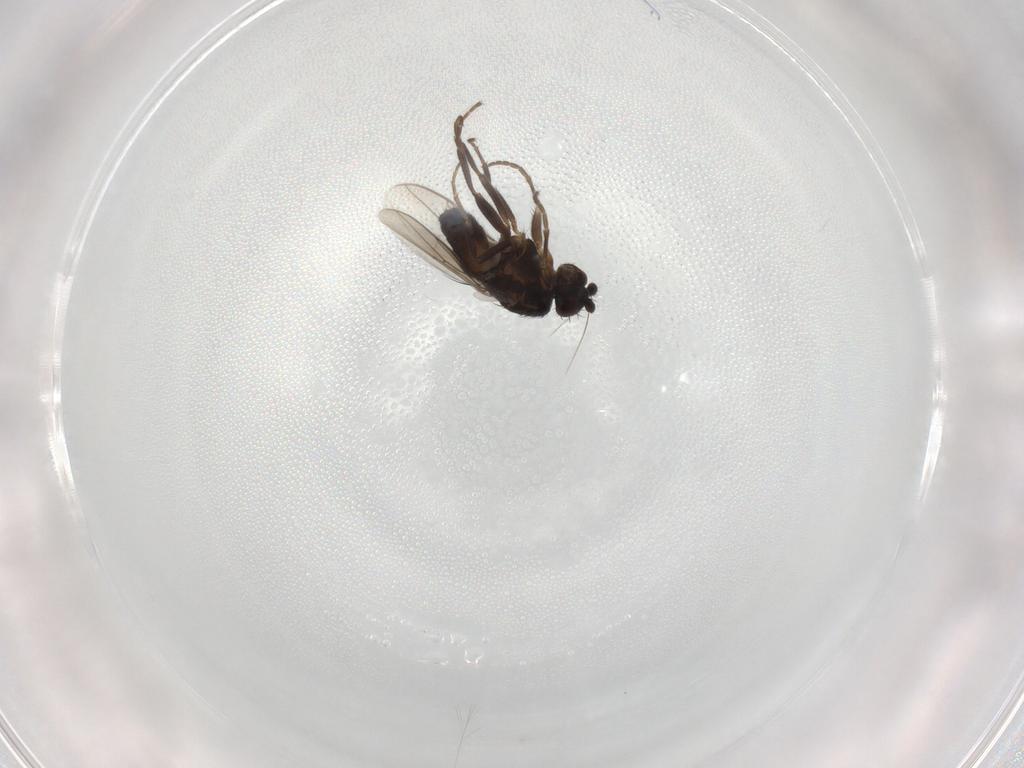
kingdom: Animalia
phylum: Arthropoda
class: Insecta
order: Diptera
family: Sphaeroceridae
